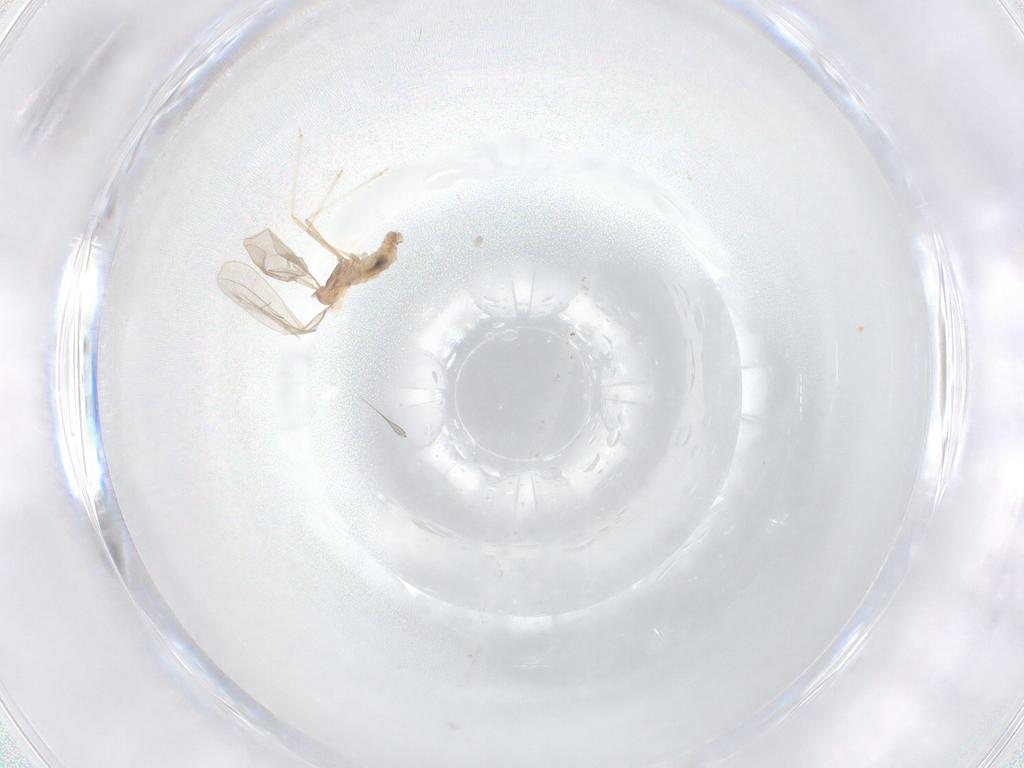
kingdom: Animalia
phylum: Arthropoda
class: Insecta
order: Diptera
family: Cecidomyiidae
